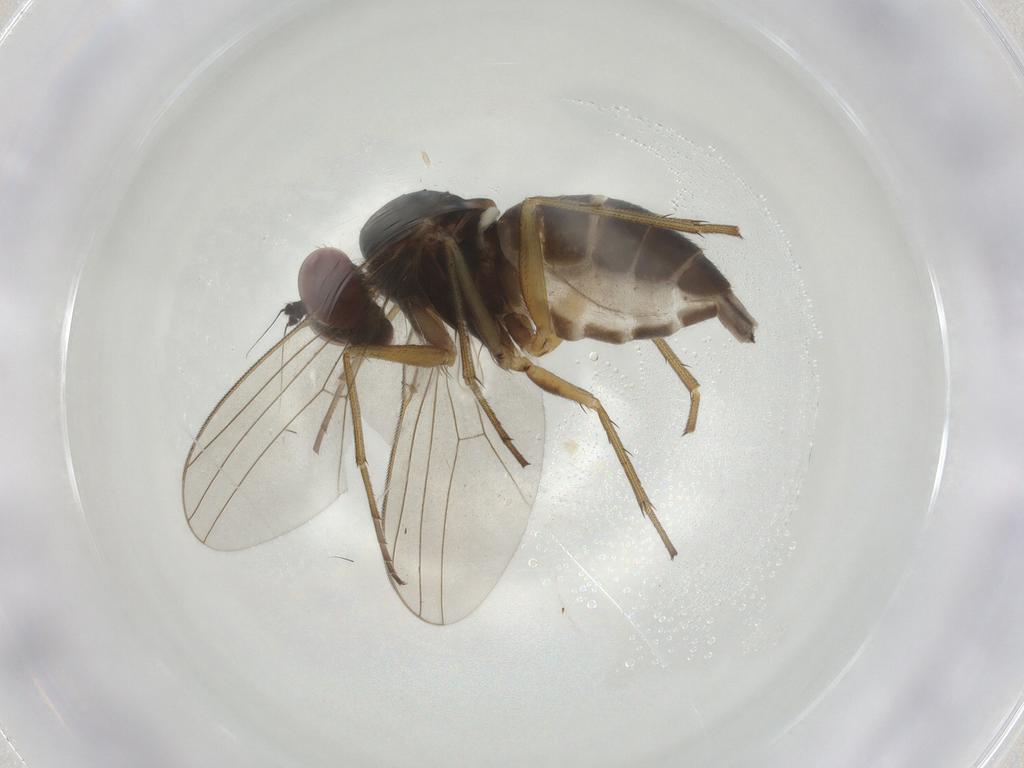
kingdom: Animalia
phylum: Arthropoda
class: Insecta
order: Diptera
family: Dolichopodidae
